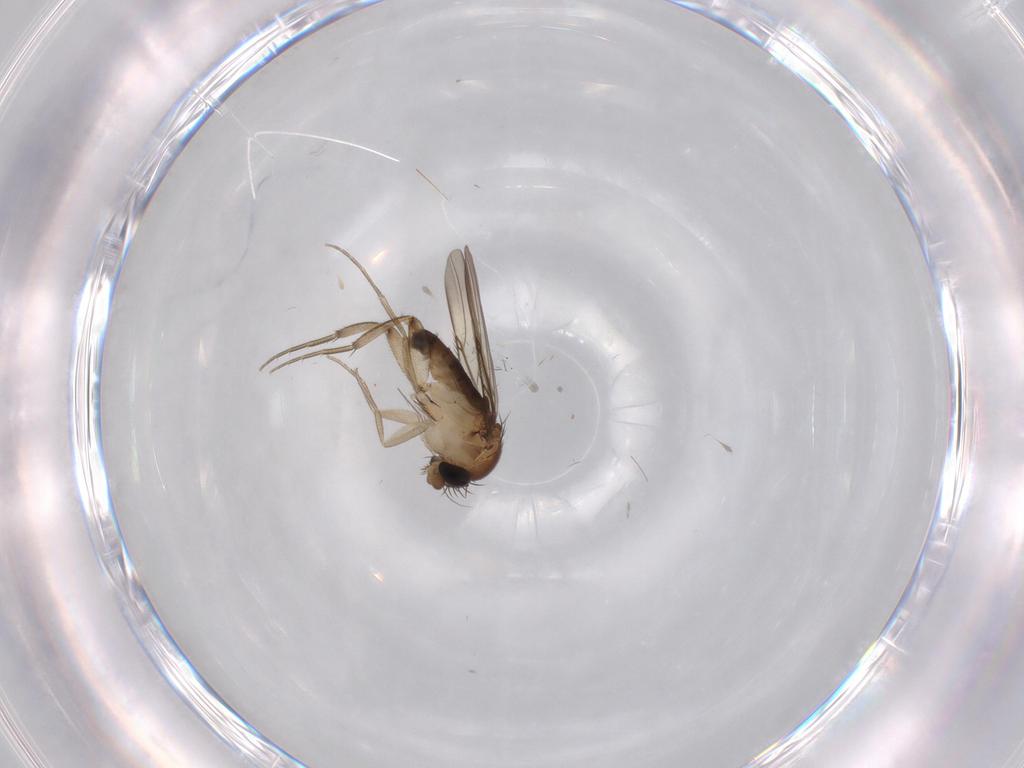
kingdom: Animalia
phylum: Arthropoda
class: Insecta
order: Diptera
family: Phoridae
